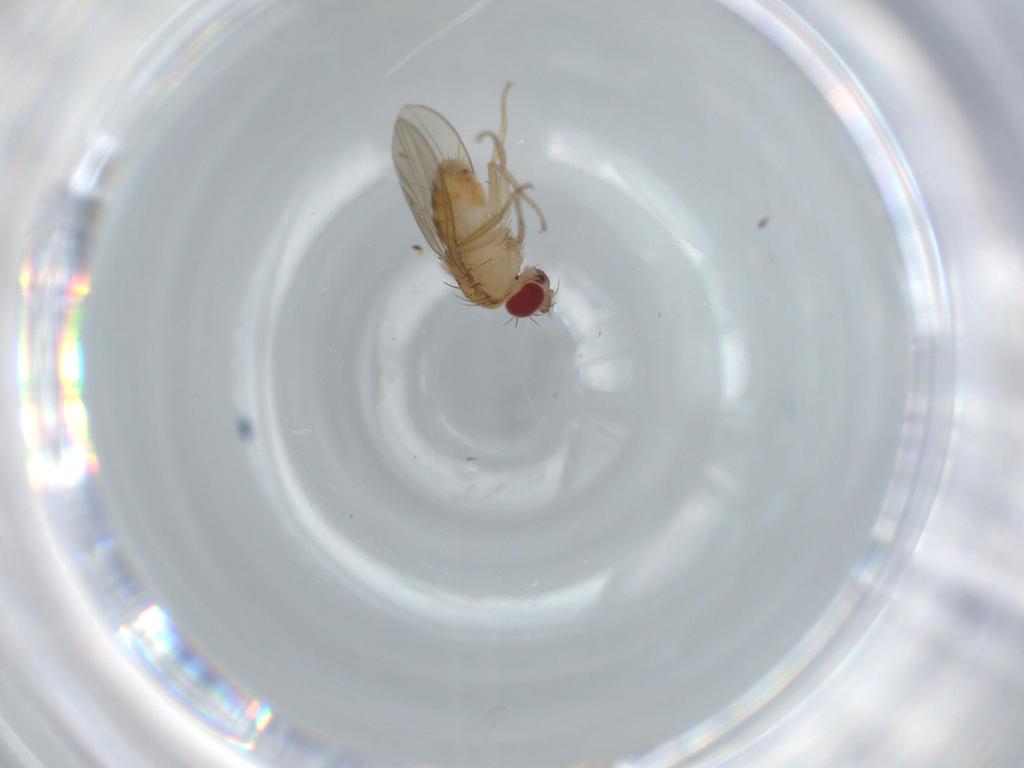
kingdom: Animalia
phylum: Arthropoda
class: Insecta
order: Diptera
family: Drosophilidae
